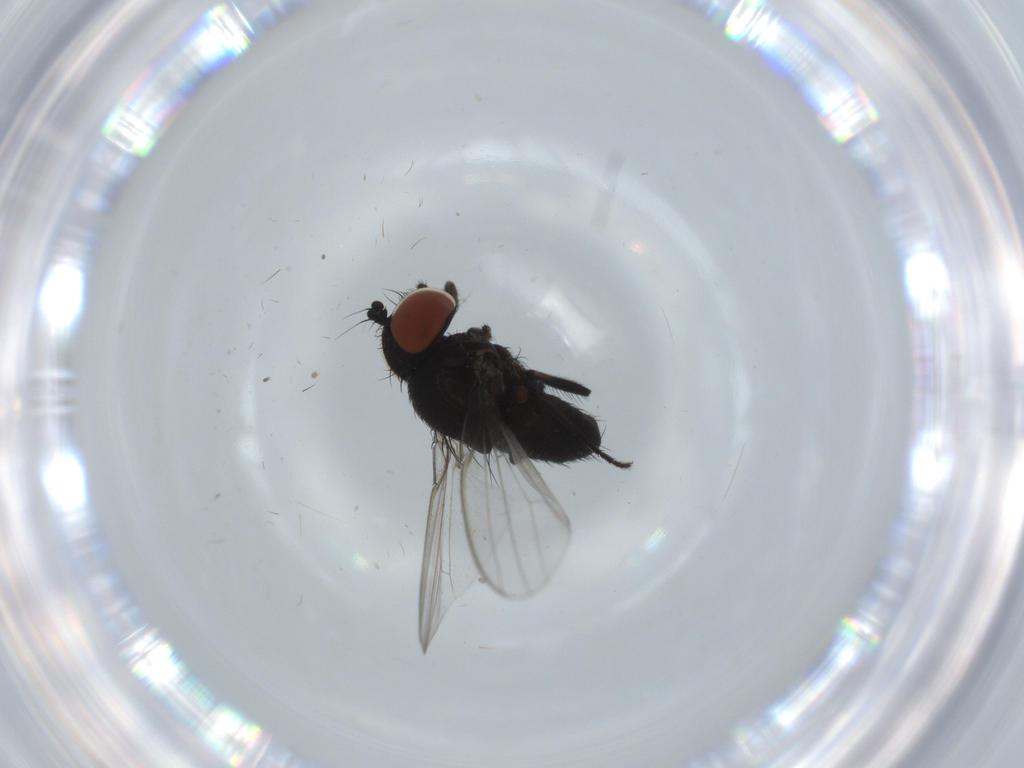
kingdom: Animalia
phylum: Arthropoda
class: Insecta
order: Diptera
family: Milichiidae
